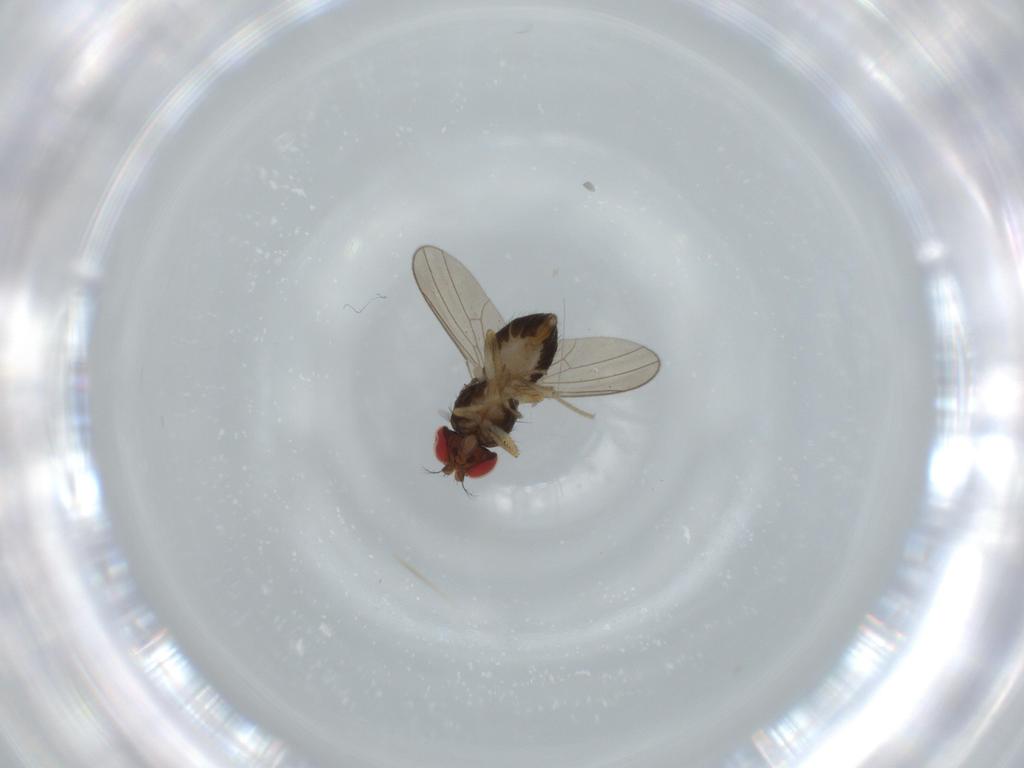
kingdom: Animalia
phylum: Arthropoda
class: Insecta
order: Diptera
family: Drosophilidae
